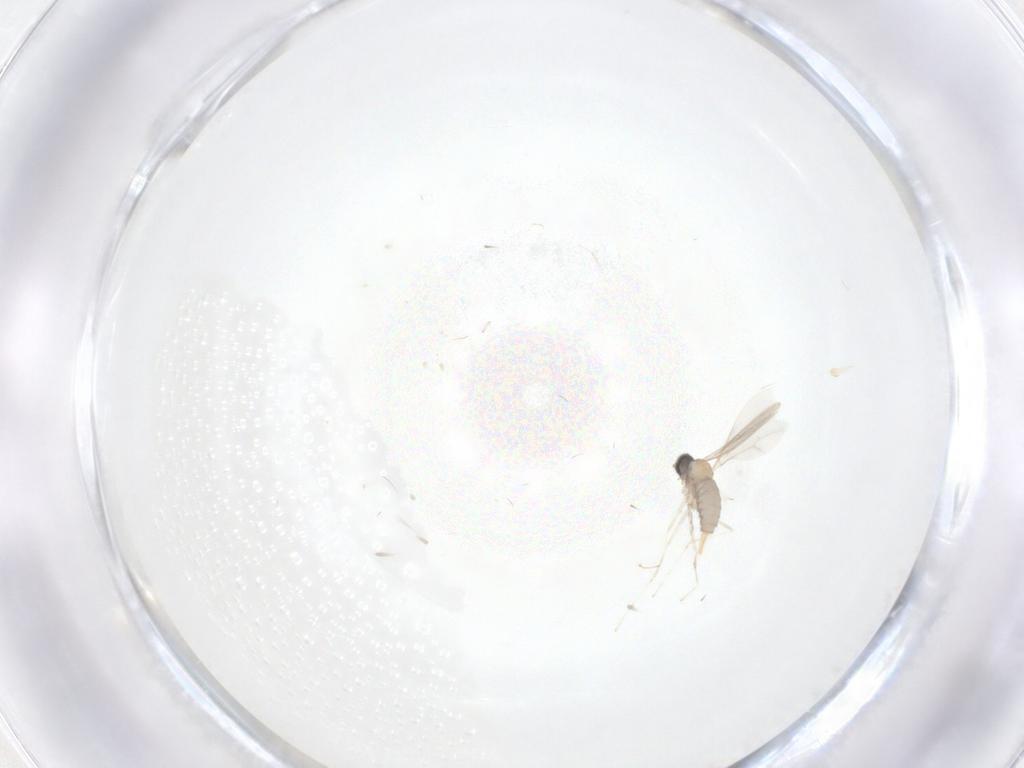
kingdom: Animalia
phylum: Arthropoda
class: Insecta
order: Diptera
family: Cecidomyiidae
